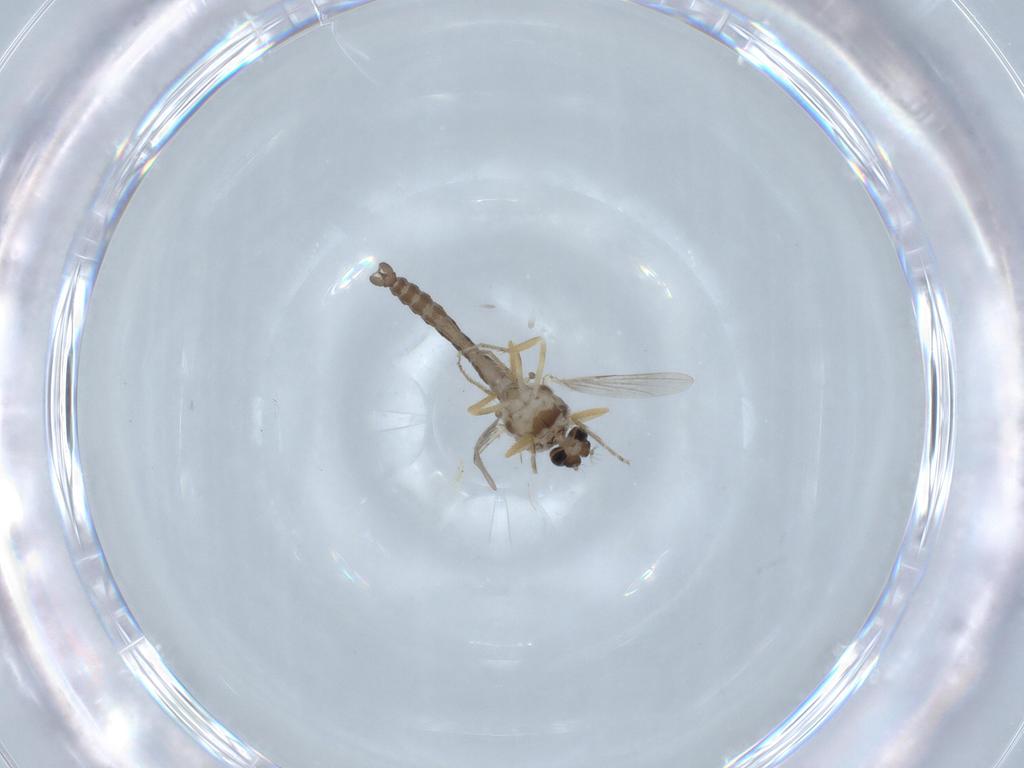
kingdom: Animalia
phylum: Arthropoda
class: Insecta
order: Diptera
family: Ceratopogonidae
